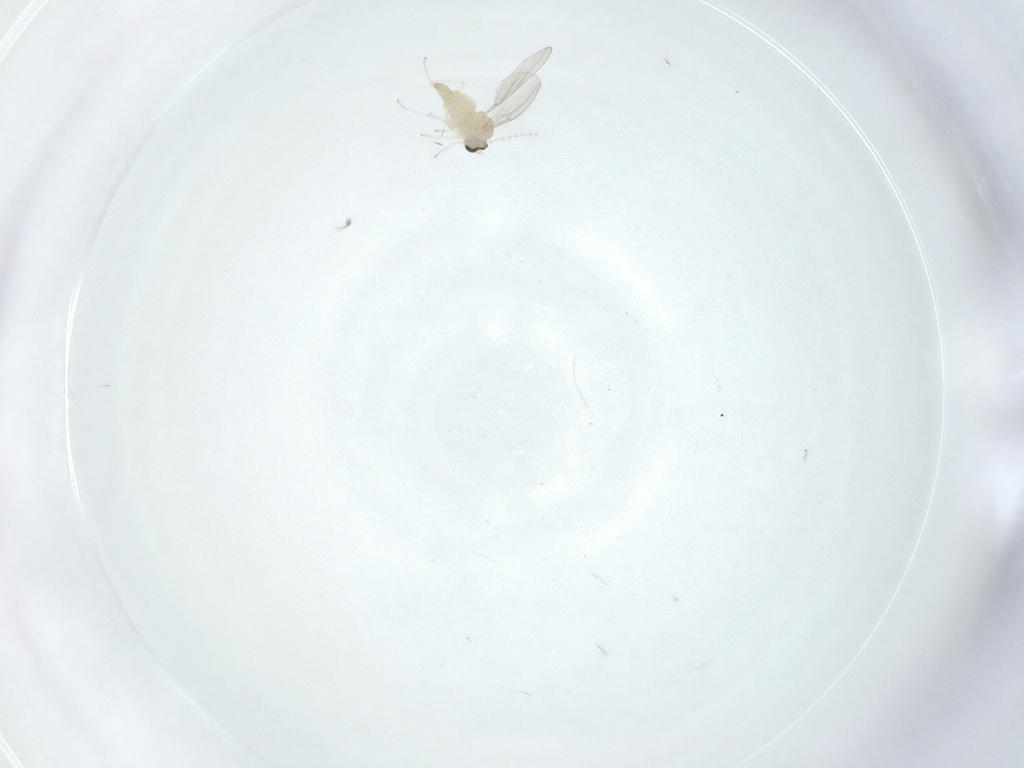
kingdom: Animalia
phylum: Arthropoda
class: Insecta
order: Diptera
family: Cecidomyiidae
